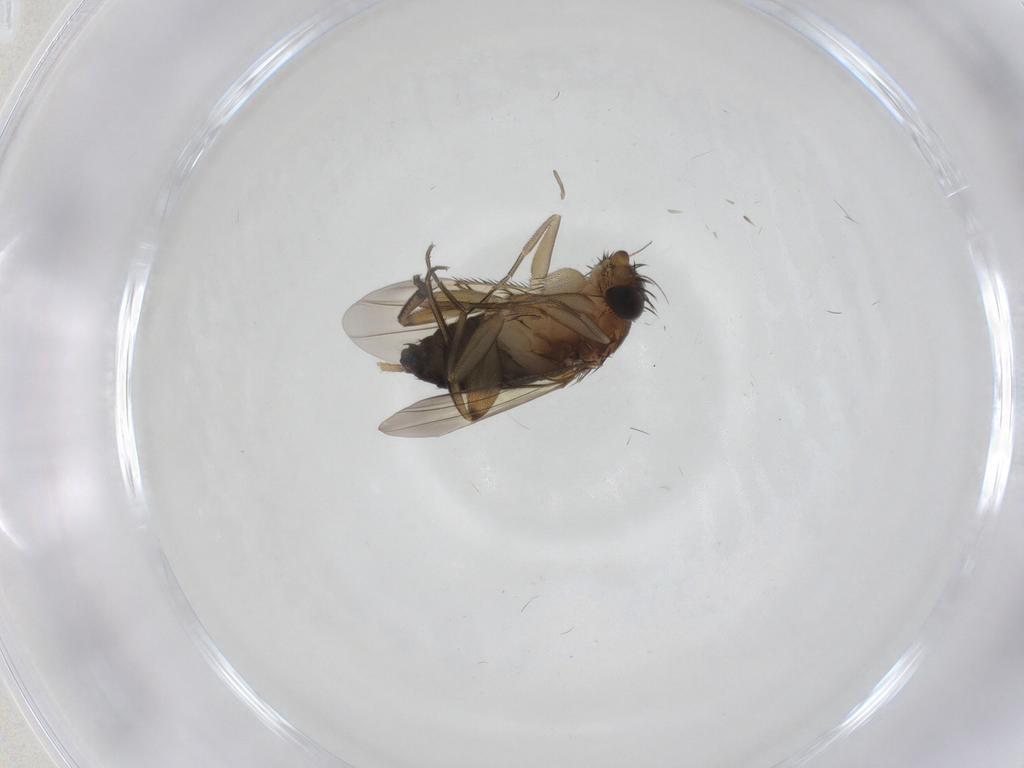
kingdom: Animalia
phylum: Arthropoda
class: Insecta
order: Diptera
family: Phoridae
